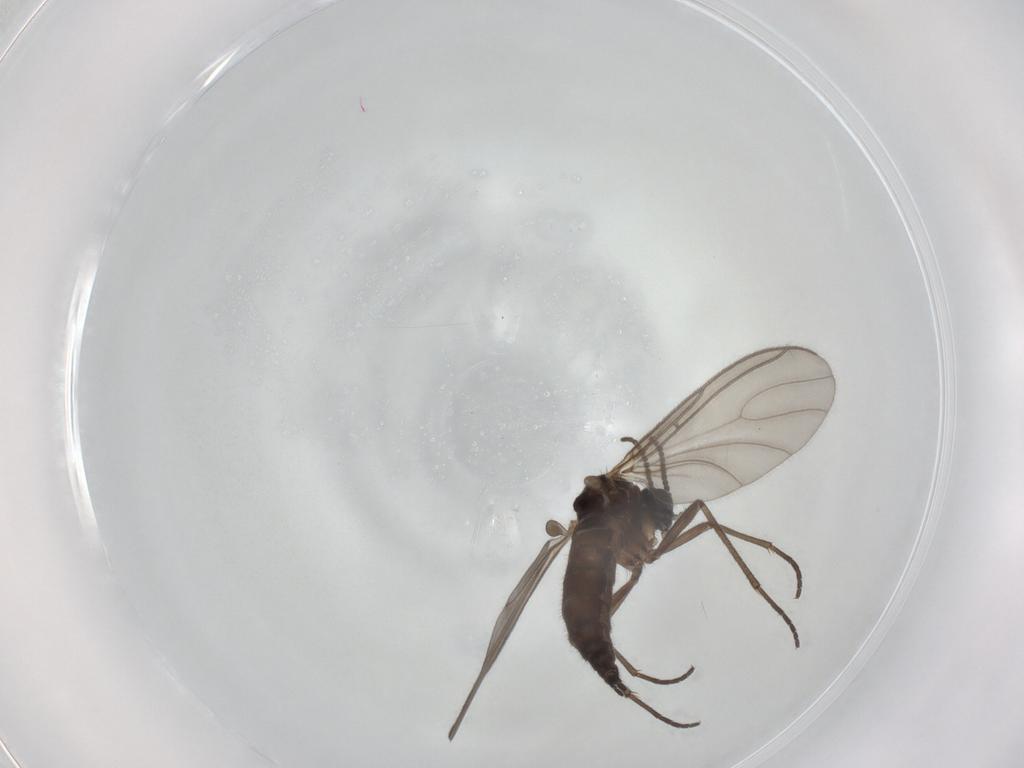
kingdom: Animalia
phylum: Arthropoda
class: Insecta
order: Diptera
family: Sciaridae
